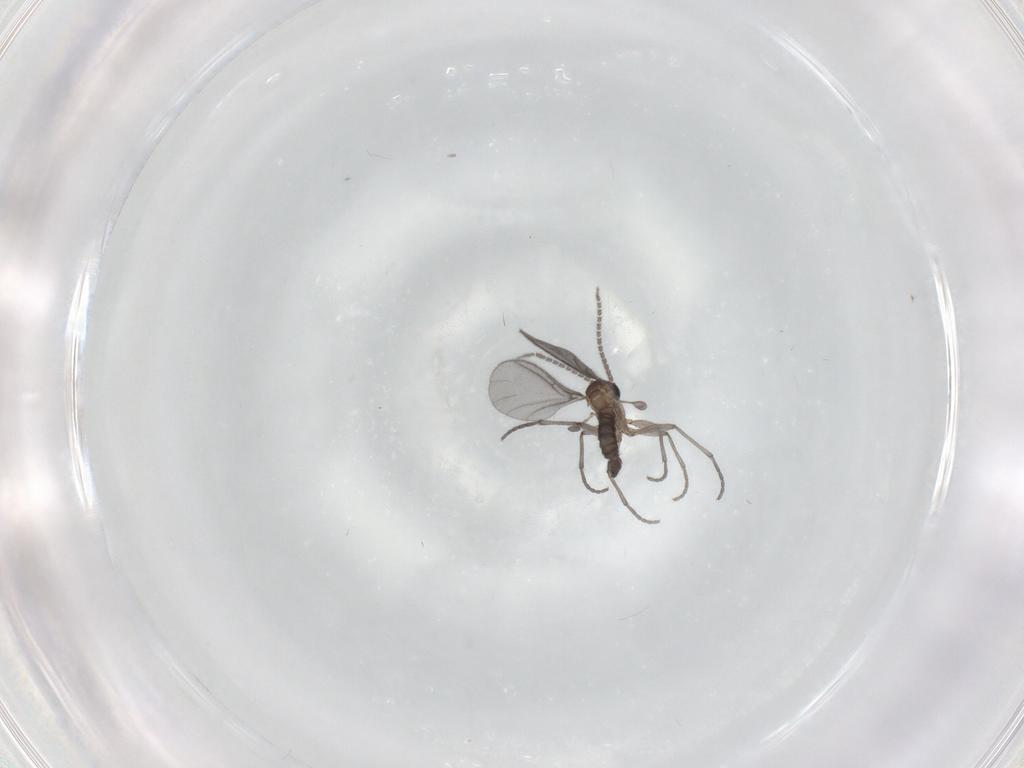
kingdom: Animalia
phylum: Arthropoda
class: Insecta
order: Diptera
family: Sciaridae
